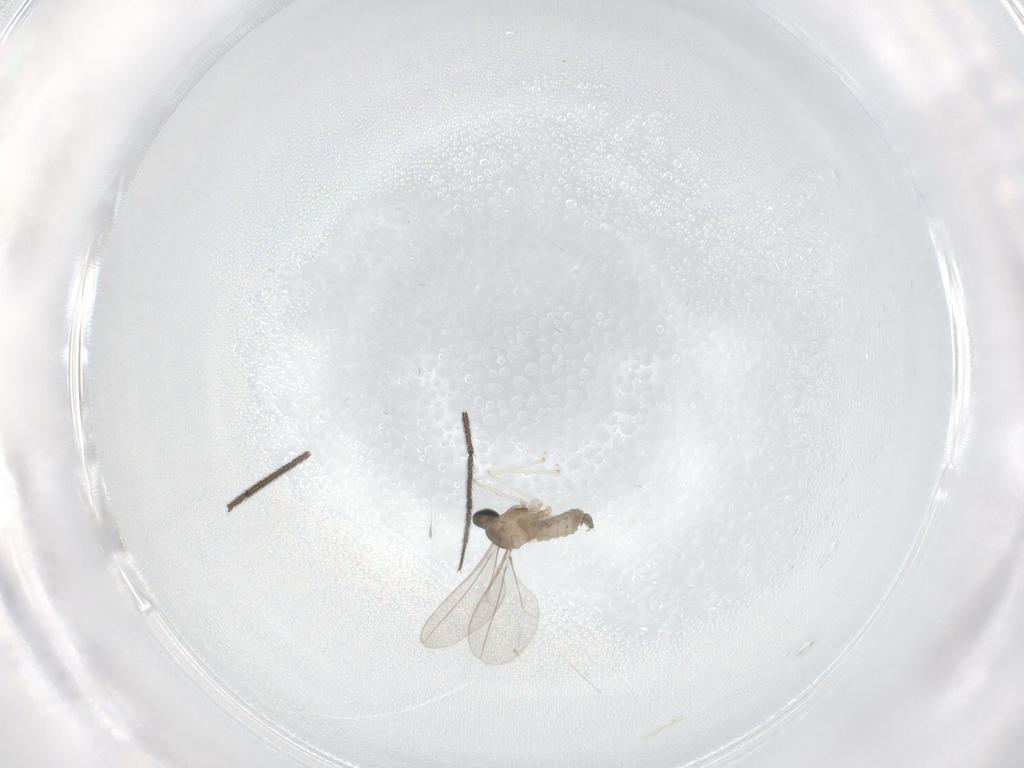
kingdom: Animalia
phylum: Arthropoda
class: Insecta
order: Diptera
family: Cecidomyiidae
